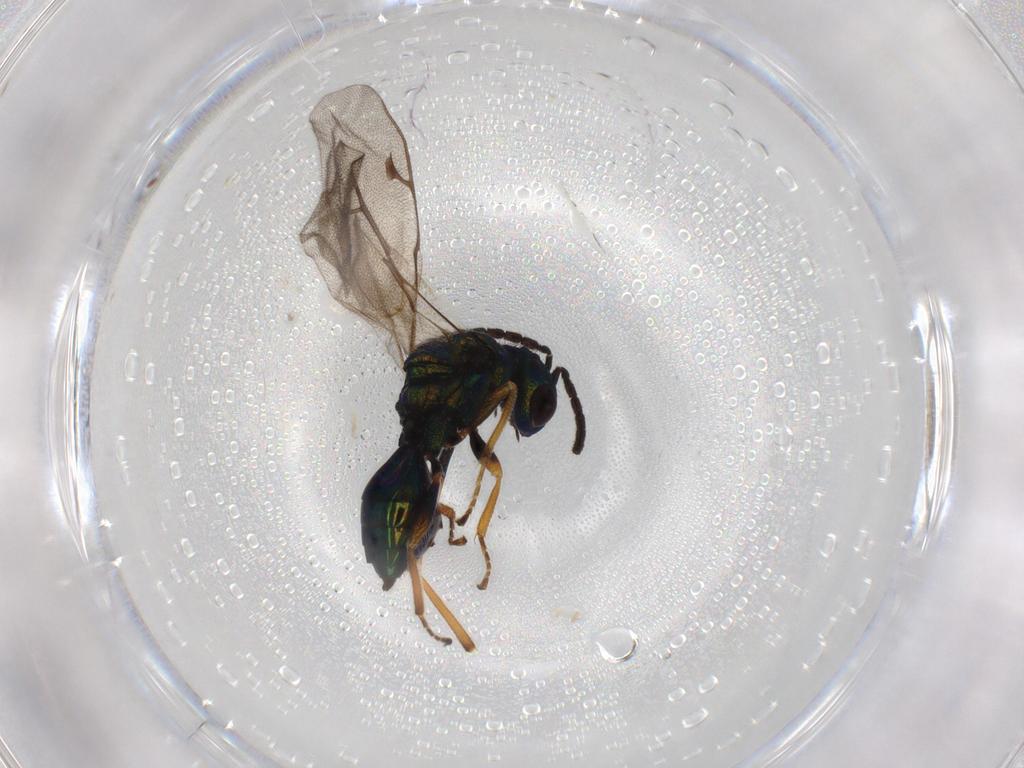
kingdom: Animalia
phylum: Arthropoda
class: Insecta
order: Hymenoptera
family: Pteromalidae
